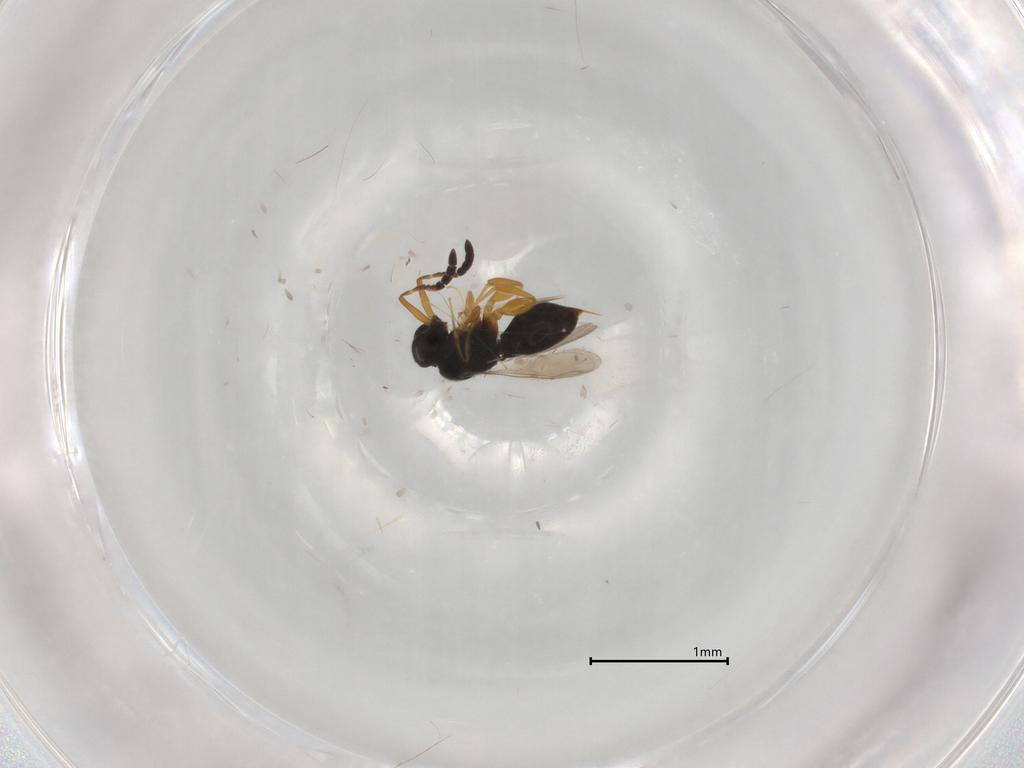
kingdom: Animalia
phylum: Arthropoda
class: Insecta
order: Hymenoptera
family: Evaniidae
